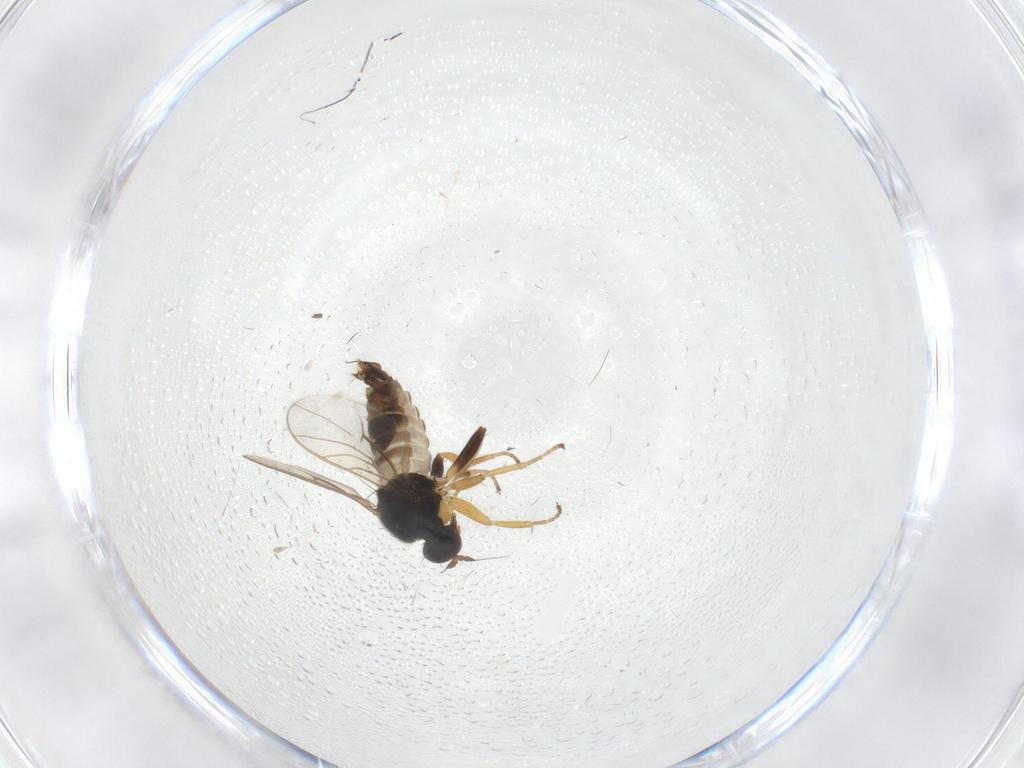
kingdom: Animalia
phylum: Arthropoda
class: Insecta
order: Diptera
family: Hybotidae
